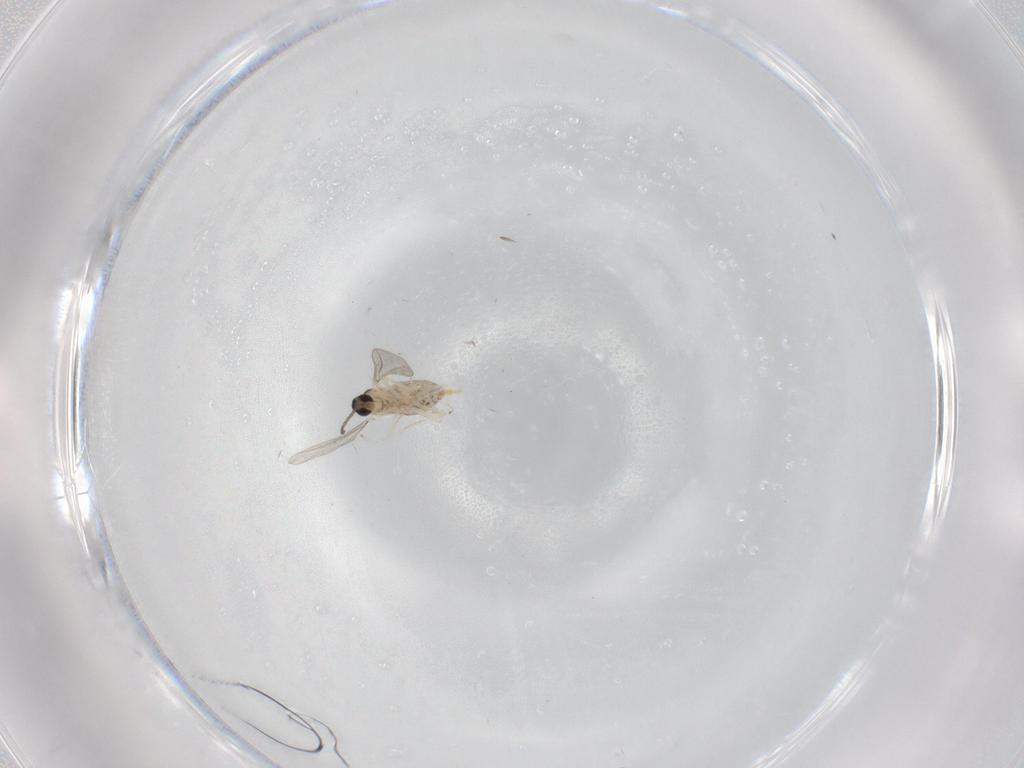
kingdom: Animalia
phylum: Arthropoda
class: Insecta
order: Diptera
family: Cecidomyiidae
